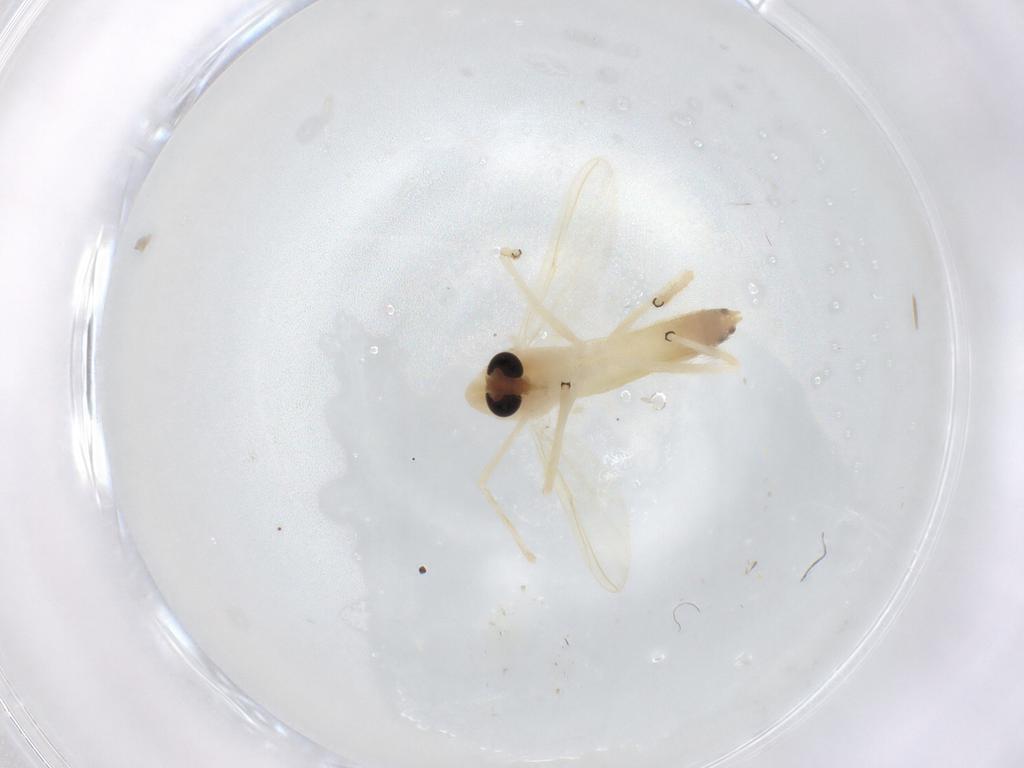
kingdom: Animalia
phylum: Arthropoda
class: Insecta
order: Diptera
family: Chironomidae
